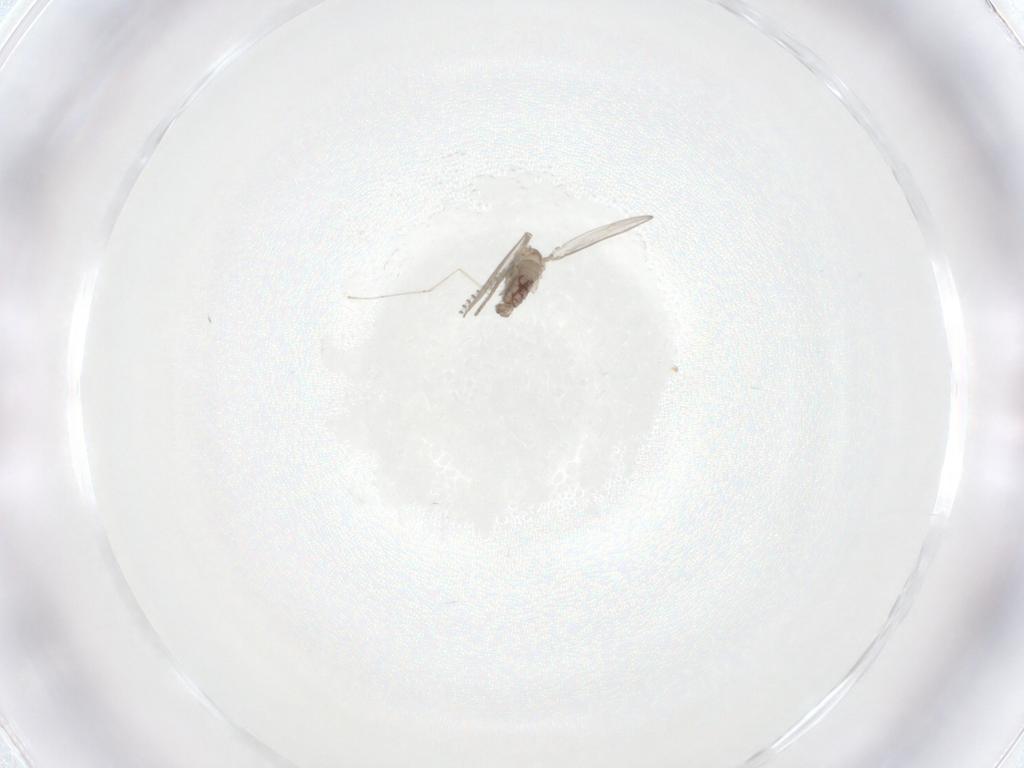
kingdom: Animalia
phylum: Arthropoda
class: Insecta
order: Diptera
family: Psychodidae
